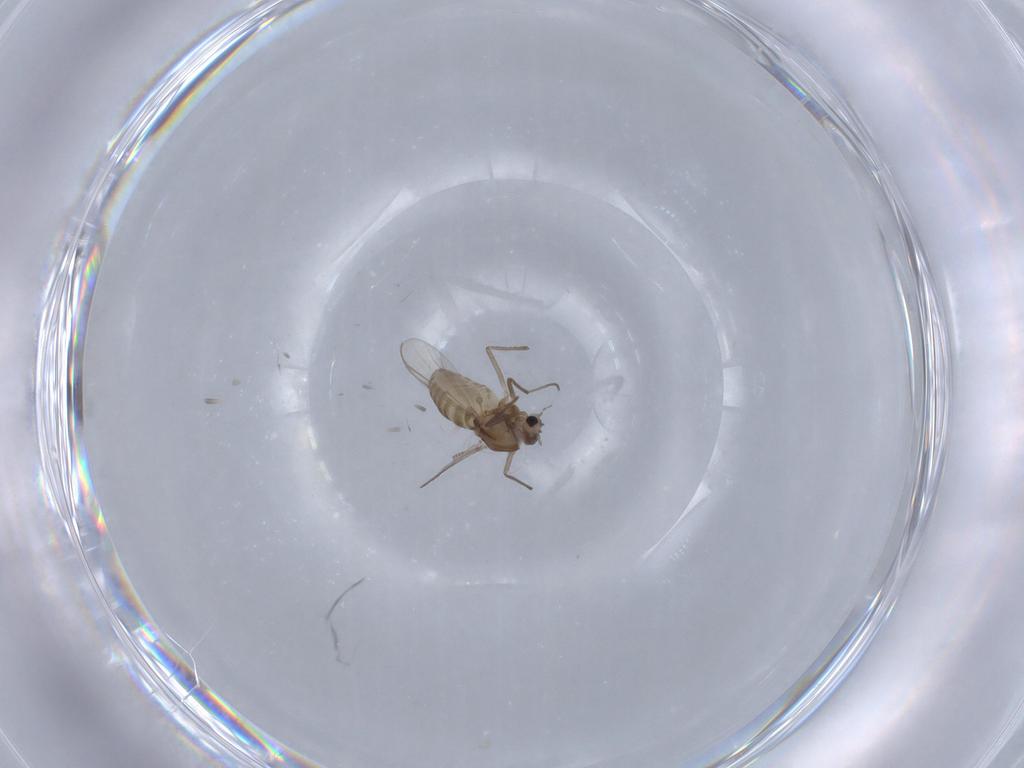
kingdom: Animalia
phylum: Arthropoda
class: Insecta
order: Diptera
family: Chironomidae
